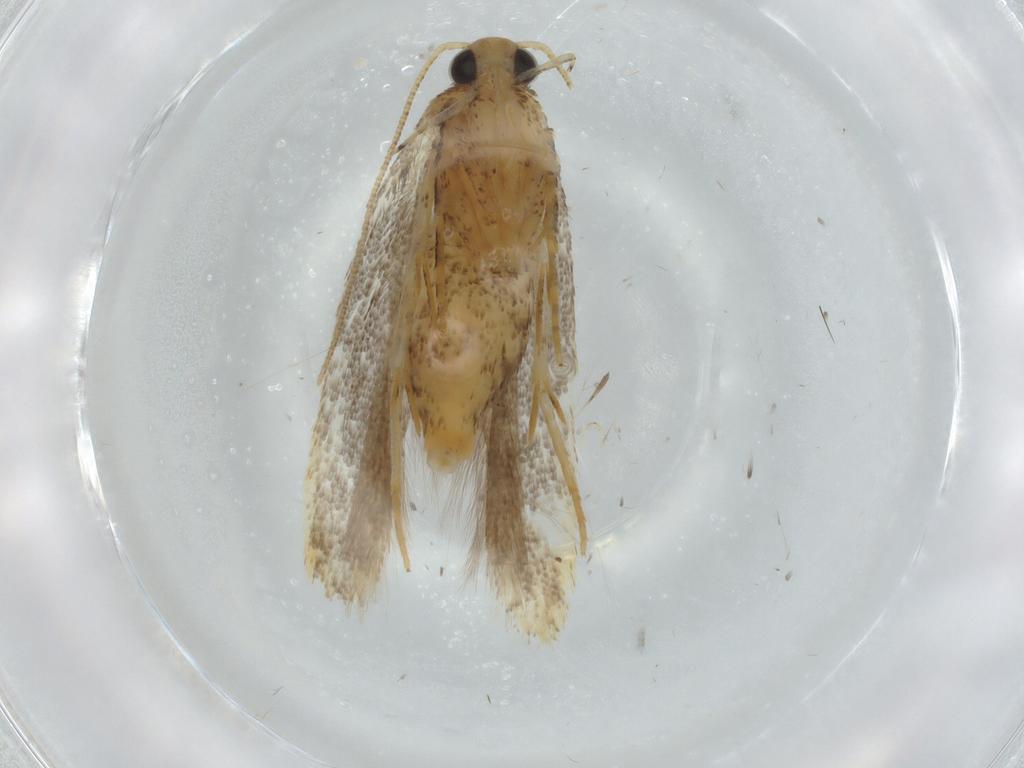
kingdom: Animalia
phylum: Arthropoda
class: Insecta
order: Lepidoptera
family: Gelechiidae
